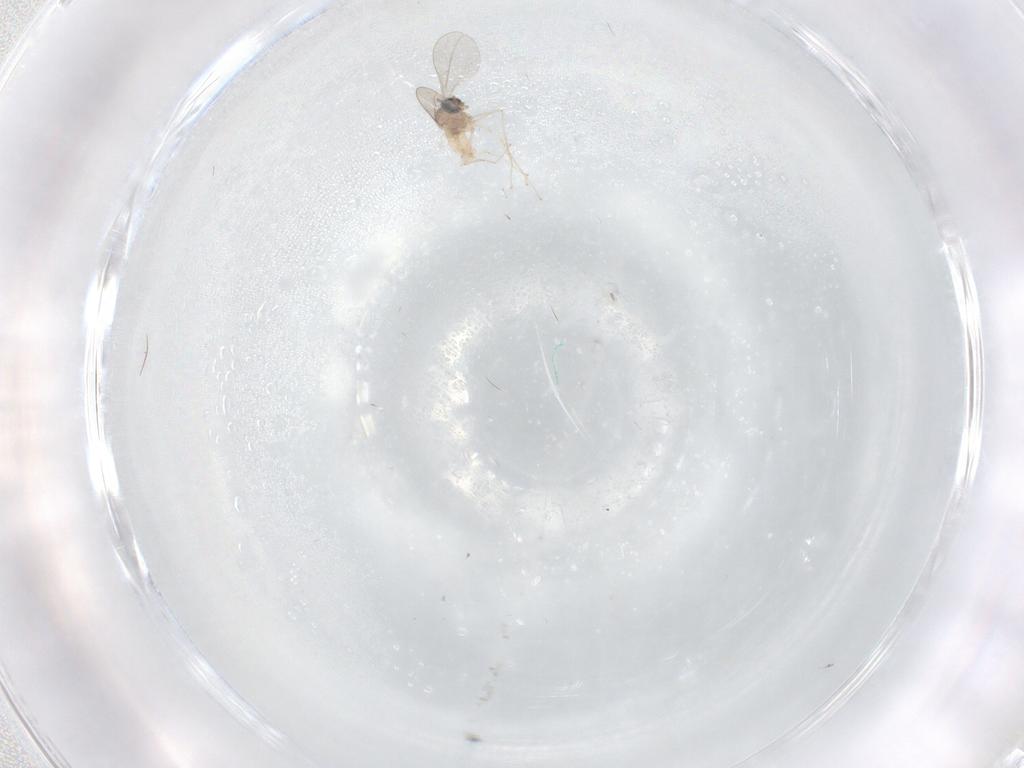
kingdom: Animalia
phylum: Arthropoda
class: Insecta
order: Diptera
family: Cecidomyiidae
